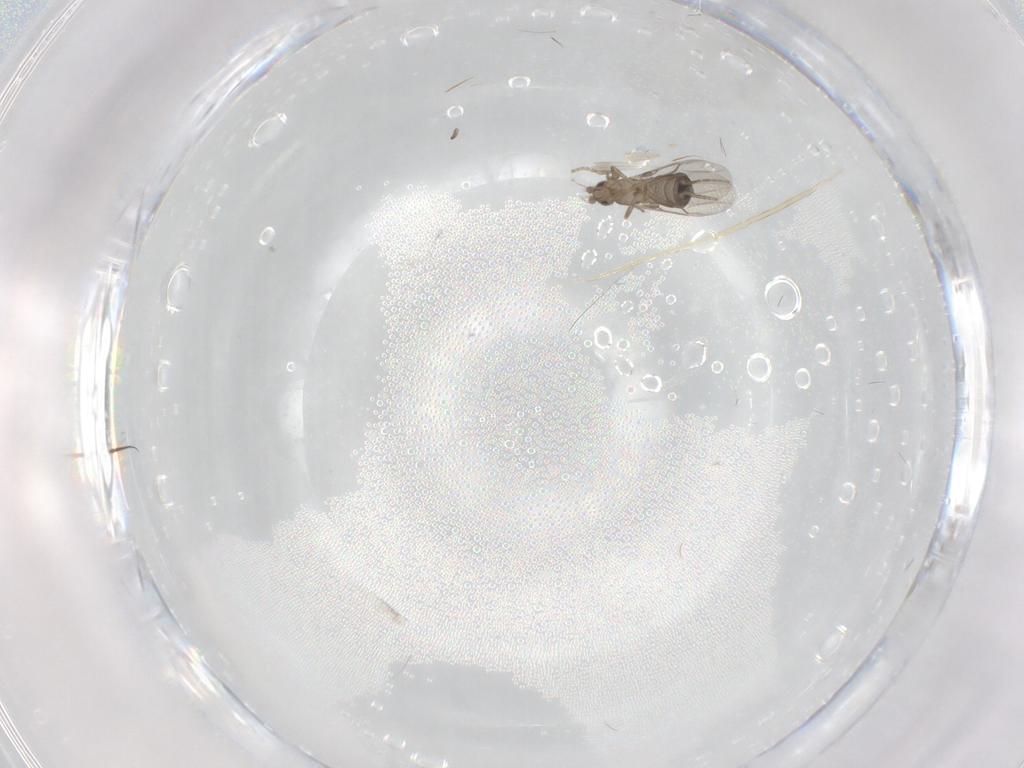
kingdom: Animalia
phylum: Arthropoda
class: Insecta
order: Diptera
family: Phoridae
